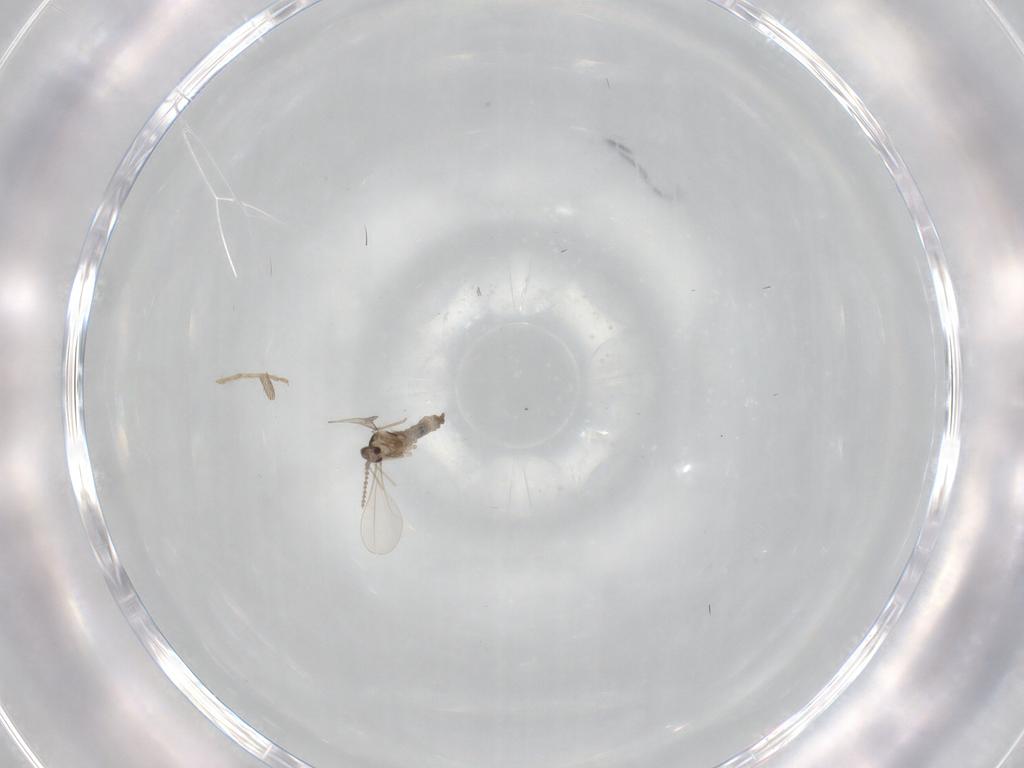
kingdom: Animalia
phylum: Arthropoda
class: Insecta
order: Diptera
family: Cecidomyiidae
